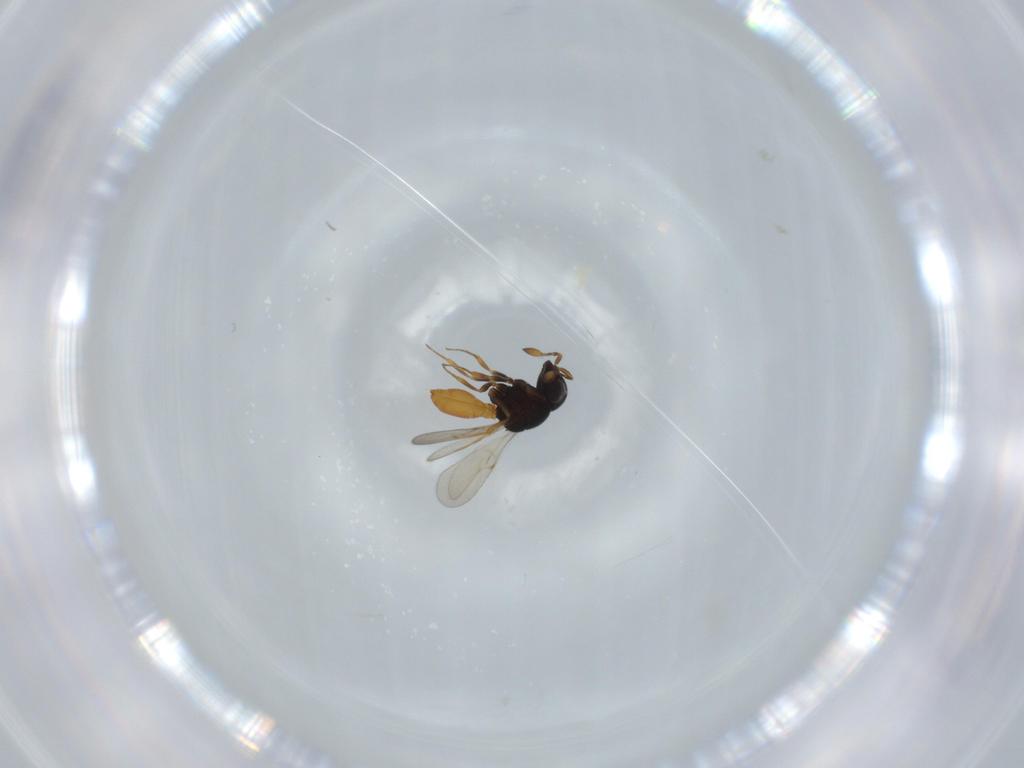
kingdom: Animalia
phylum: Arthropoda
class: Insecta
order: Hymenoptera
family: Scelionidae
